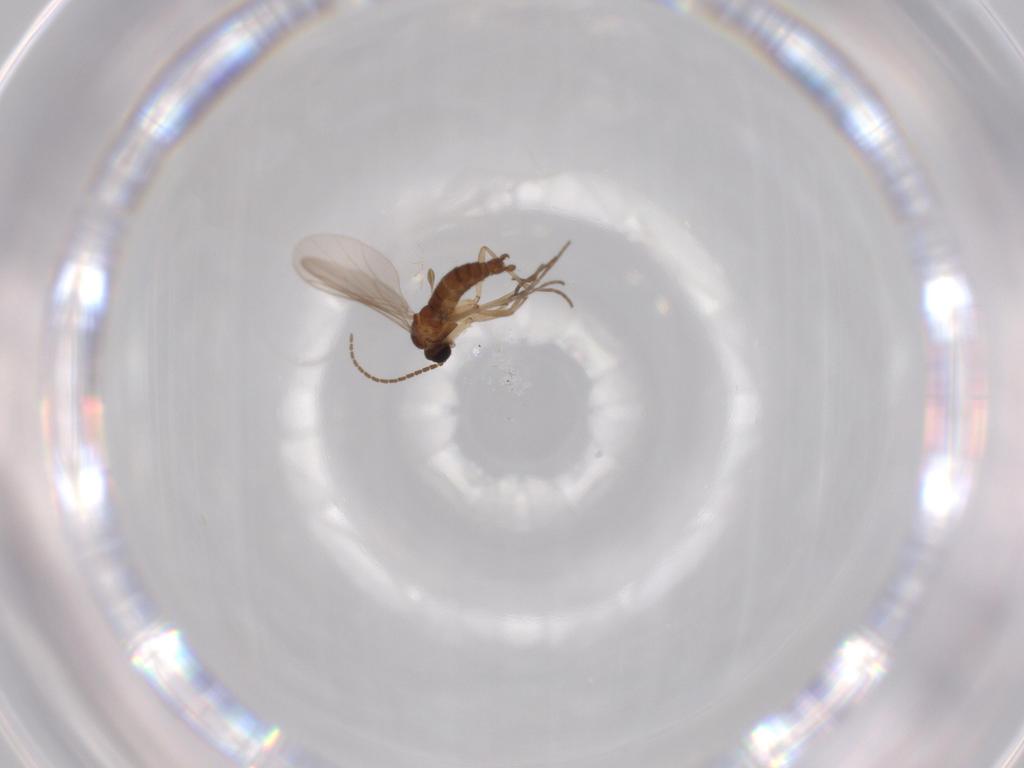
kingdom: Animalia
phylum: Arthropoda
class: Insecta
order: Diptera
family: Sciaridae
